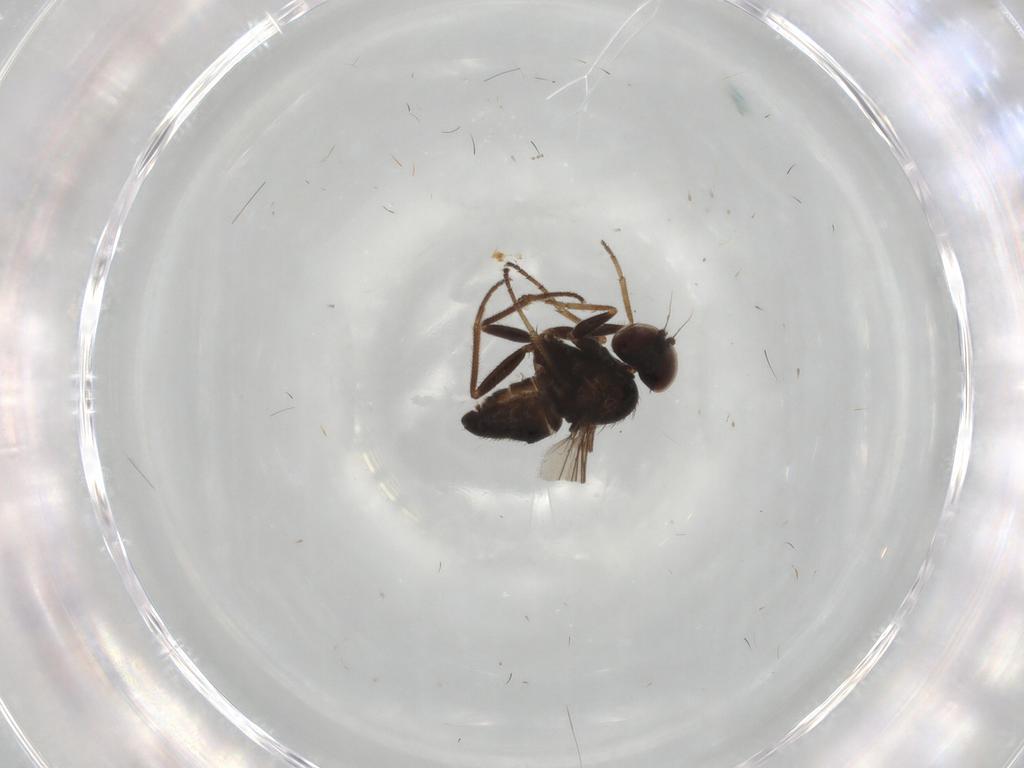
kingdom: Animalia
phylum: Arthropoda
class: Insecta
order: Diptera
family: Dolichopodidae
